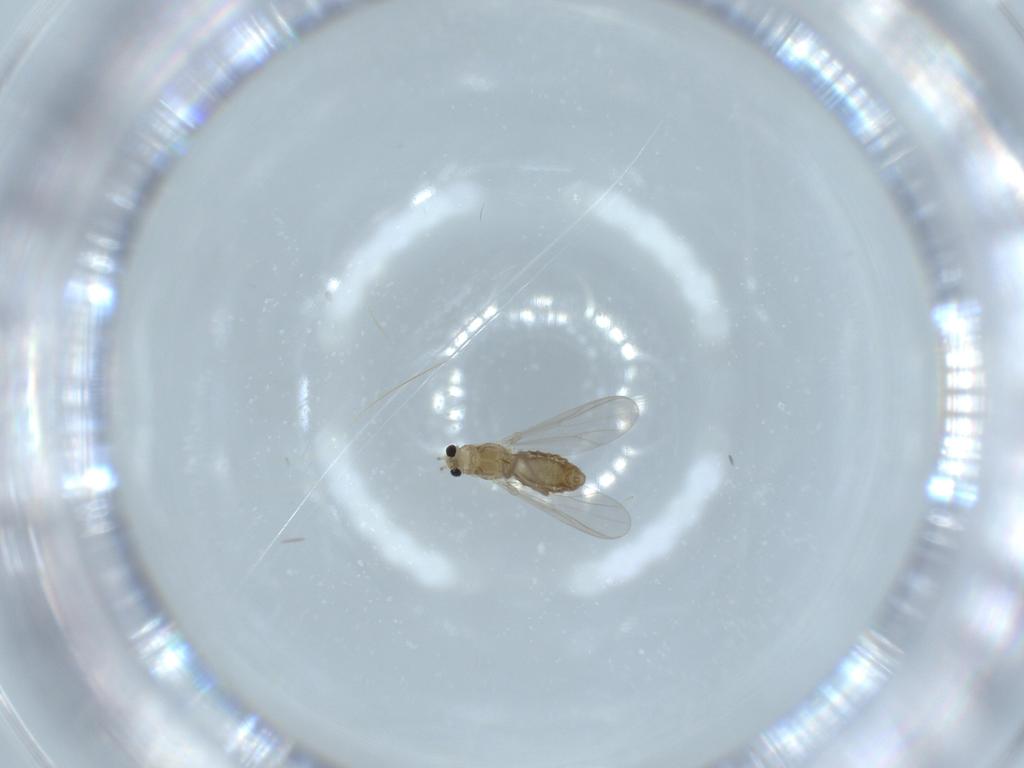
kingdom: Animalia
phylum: Arthropoda
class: Insecta
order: Diptera
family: Chironomidae
